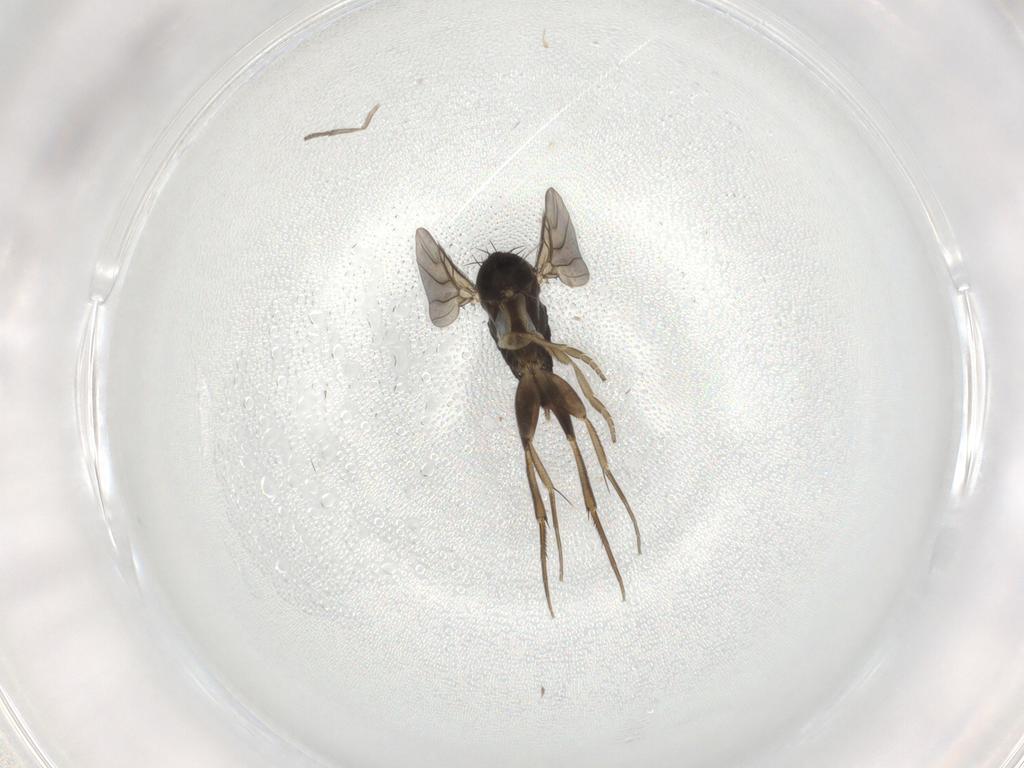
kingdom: Animalia
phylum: Arthropoda
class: Insecta
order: Diptera
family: Phoridae
